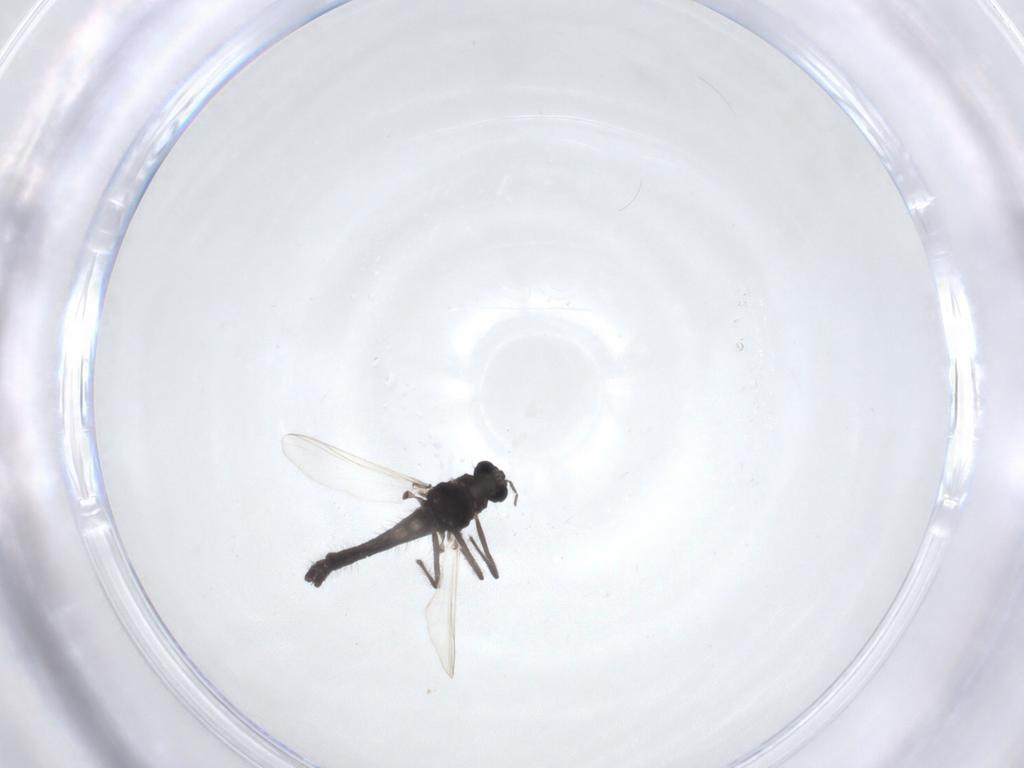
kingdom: Animalia
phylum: Arthropoda
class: Insecta
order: Diptera
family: Chironomidae
